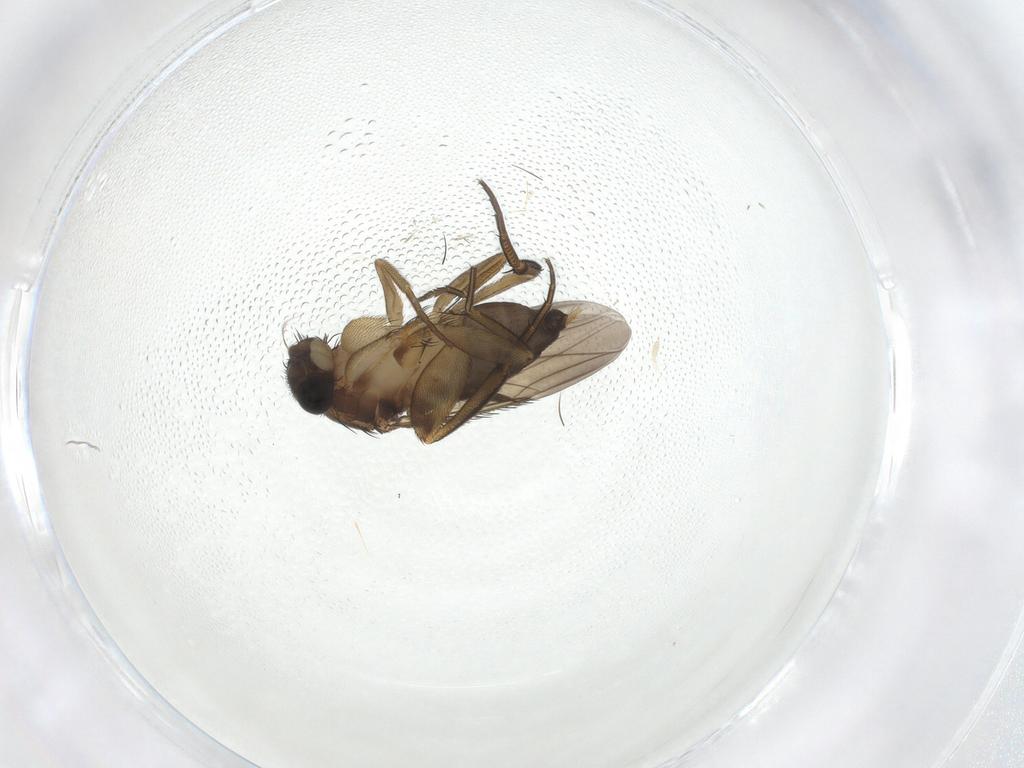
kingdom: Animalia
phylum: Arthropoda
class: Insecta
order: Diptera
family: Phoridae
